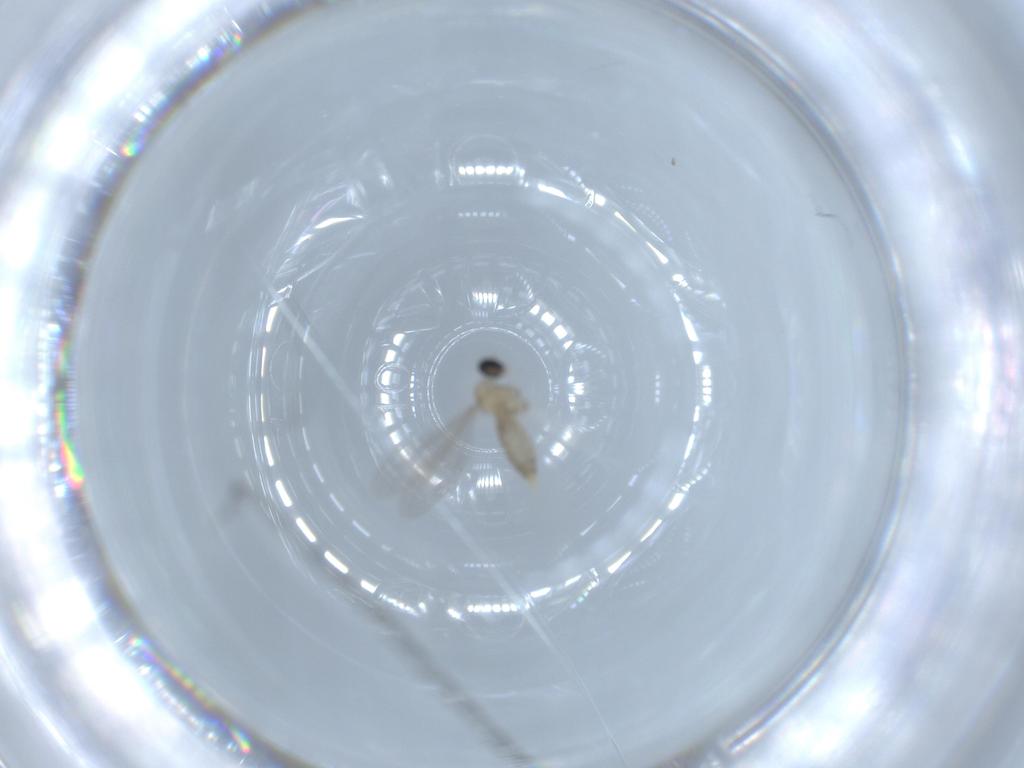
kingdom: Animalia
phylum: Arthropoda
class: Insecta
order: Diptera
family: Cecidomyiidae
